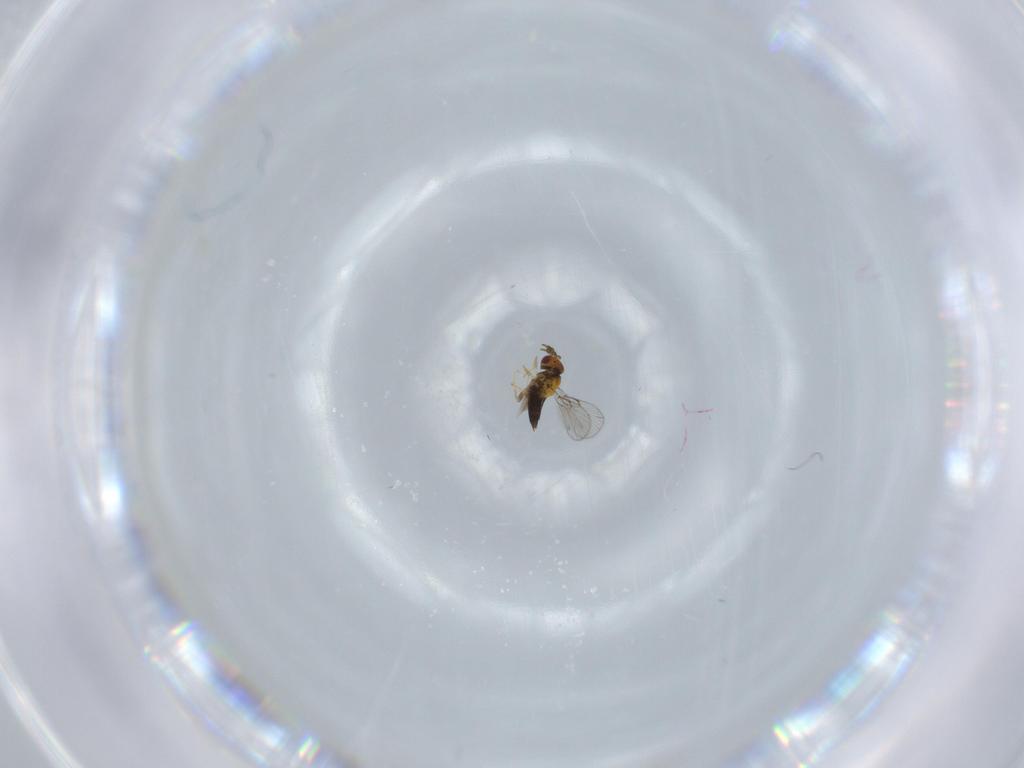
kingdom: Animalia
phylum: Arthropoda
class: Insecta
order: Hymenoptera
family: Trichogrammatidae
